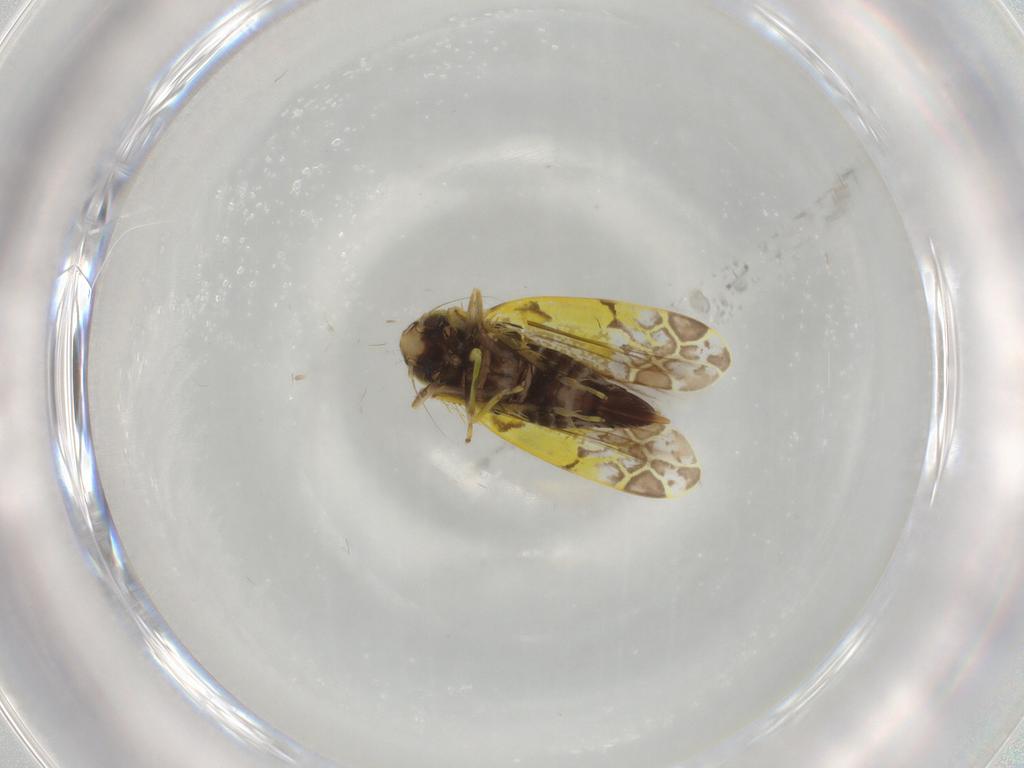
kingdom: Animalia
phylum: Arthropoda
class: Insecta
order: Hemiptera
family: Cicadellidae
